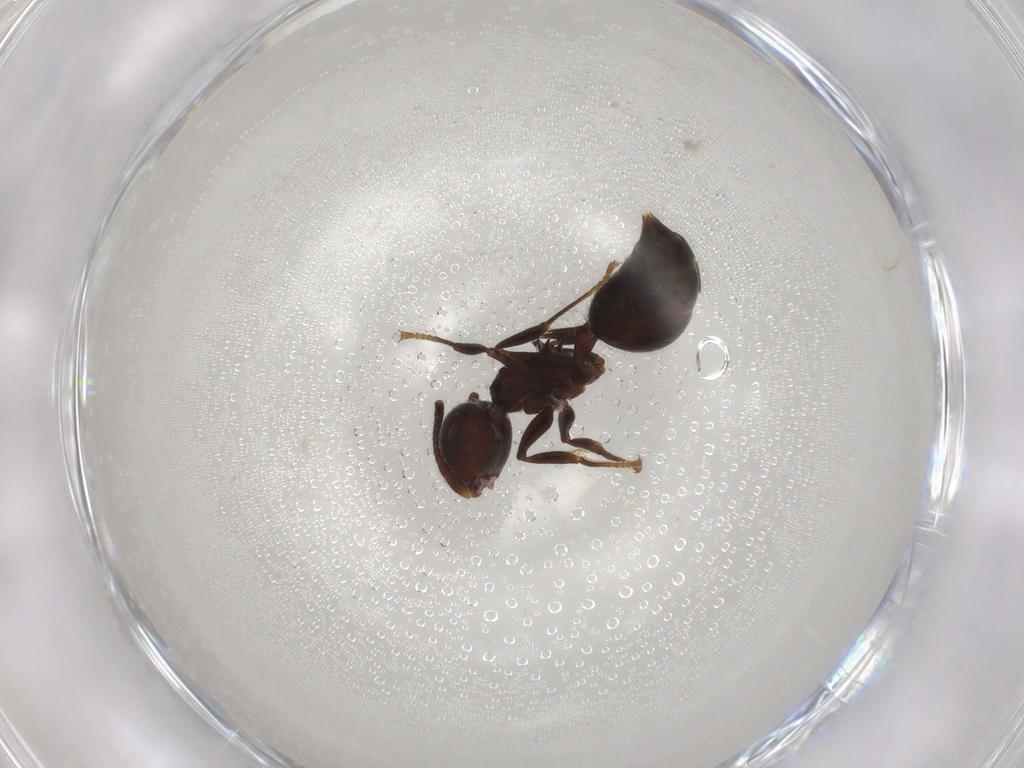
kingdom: Animalia
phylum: Arthropoda
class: Insecta
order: Hymenoptera
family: Formicidae
